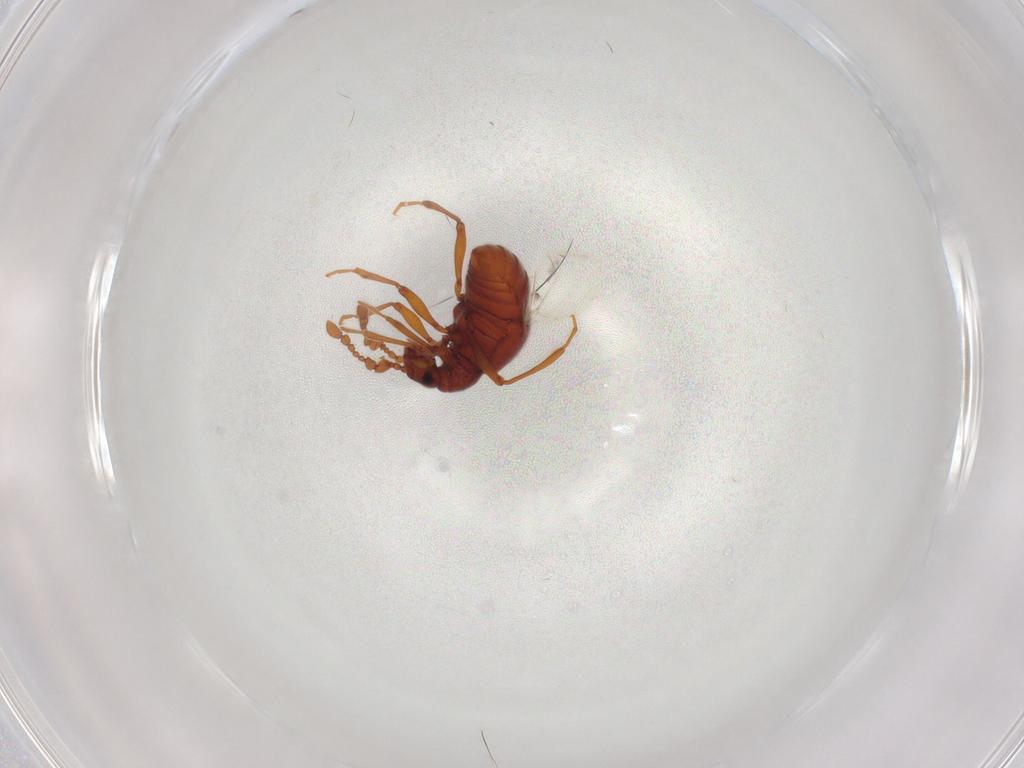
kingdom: Animalia
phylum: Arthropoda
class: Insecta
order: Coleoptera
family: Staphylinidae
